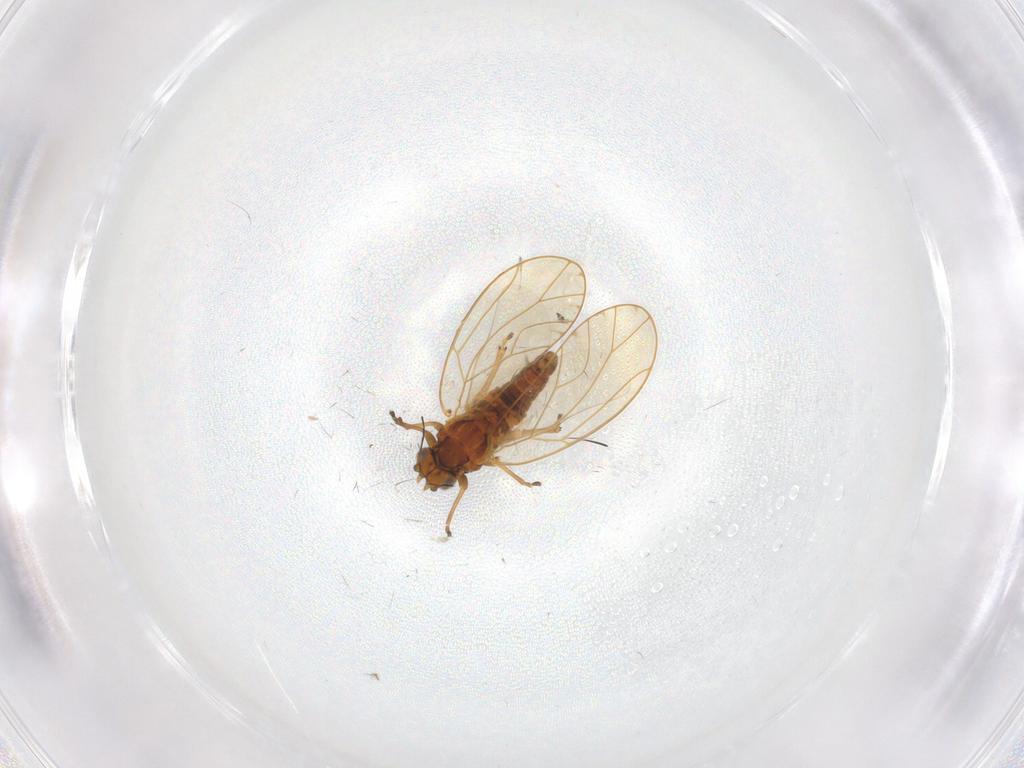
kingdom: Animalia
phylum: Arthropoda
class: Insecta
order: Hemiptera
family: Triozidae
